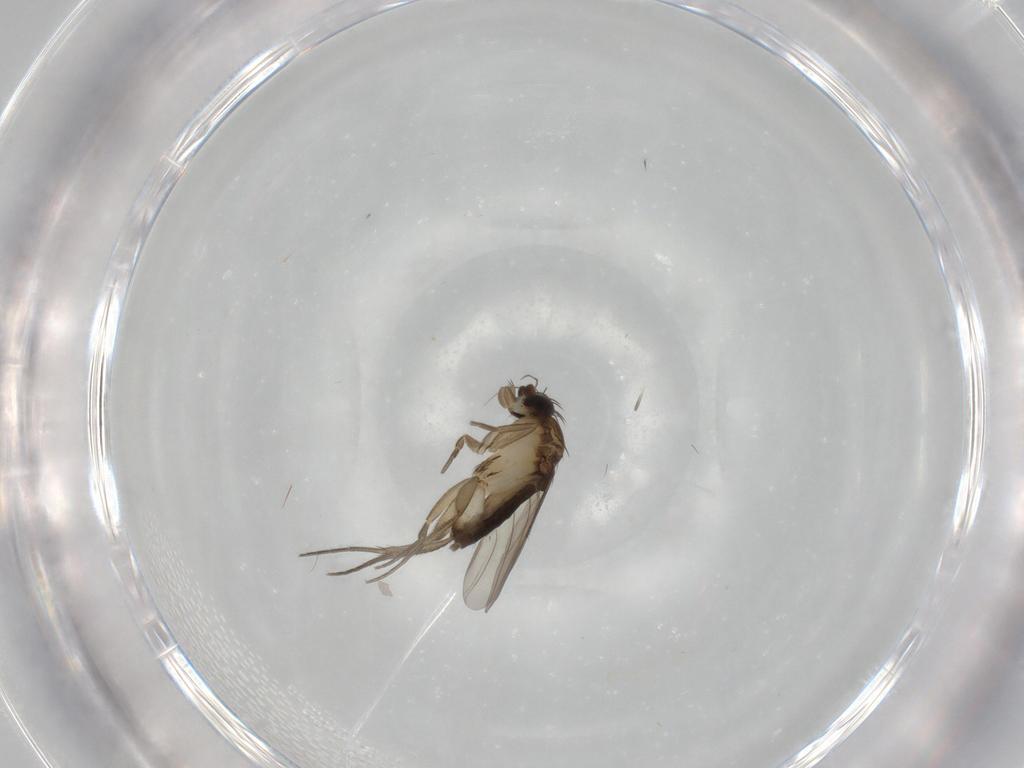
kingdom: Animalia
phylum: Arthropoda
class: Insecta
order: Diptera
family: Phoridae
